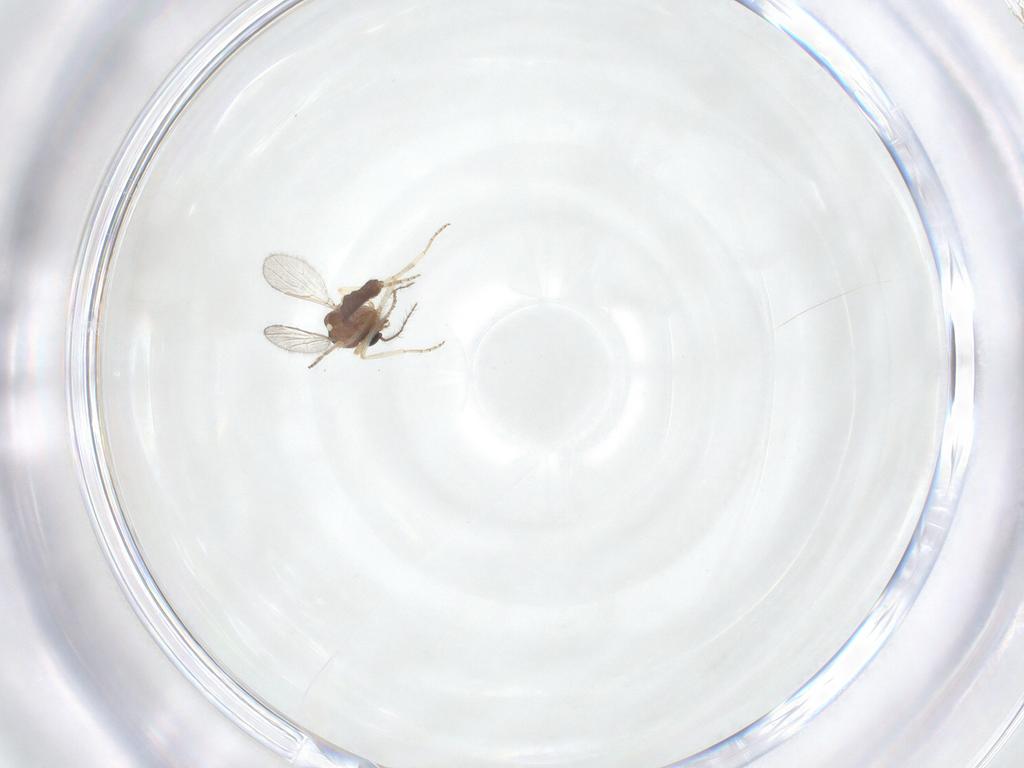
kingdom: Animalia
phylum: Arthropoda
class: Insecta
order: Diptera
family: Ceratopogonidae
